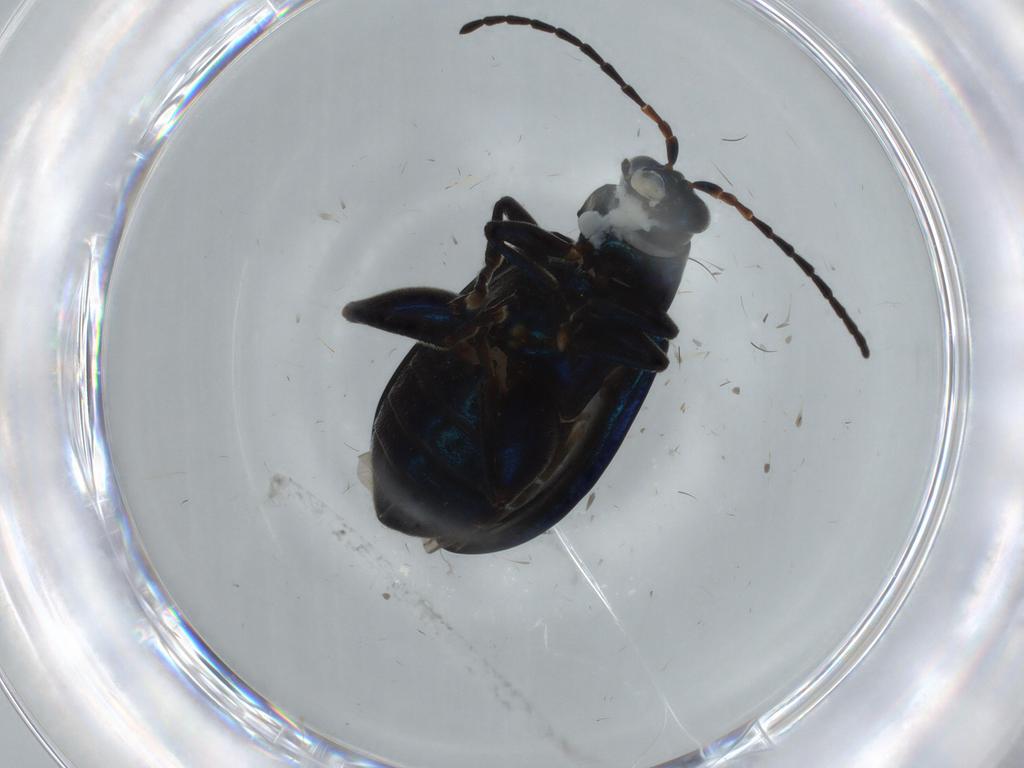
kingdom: Animalia
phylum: Arthropoda
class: Insecta
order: Coleoptera
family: Chrysomelidae
